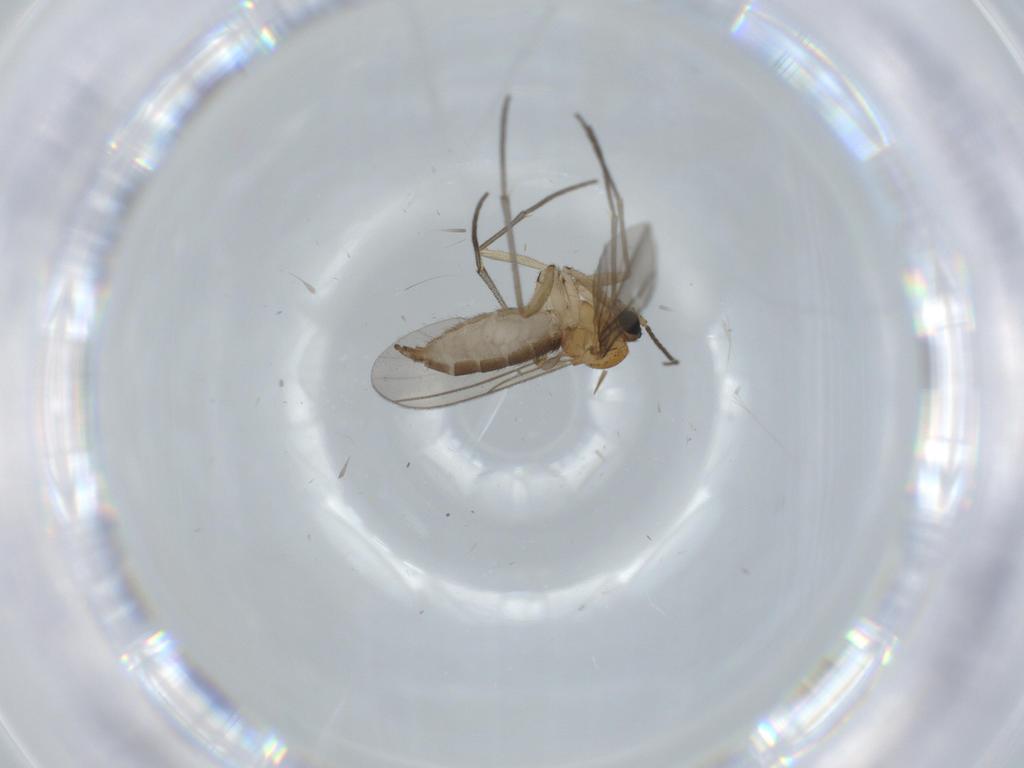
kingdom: Animalia
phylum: Arthropoda
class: Insecta
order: Diptera
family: Sciaridae
